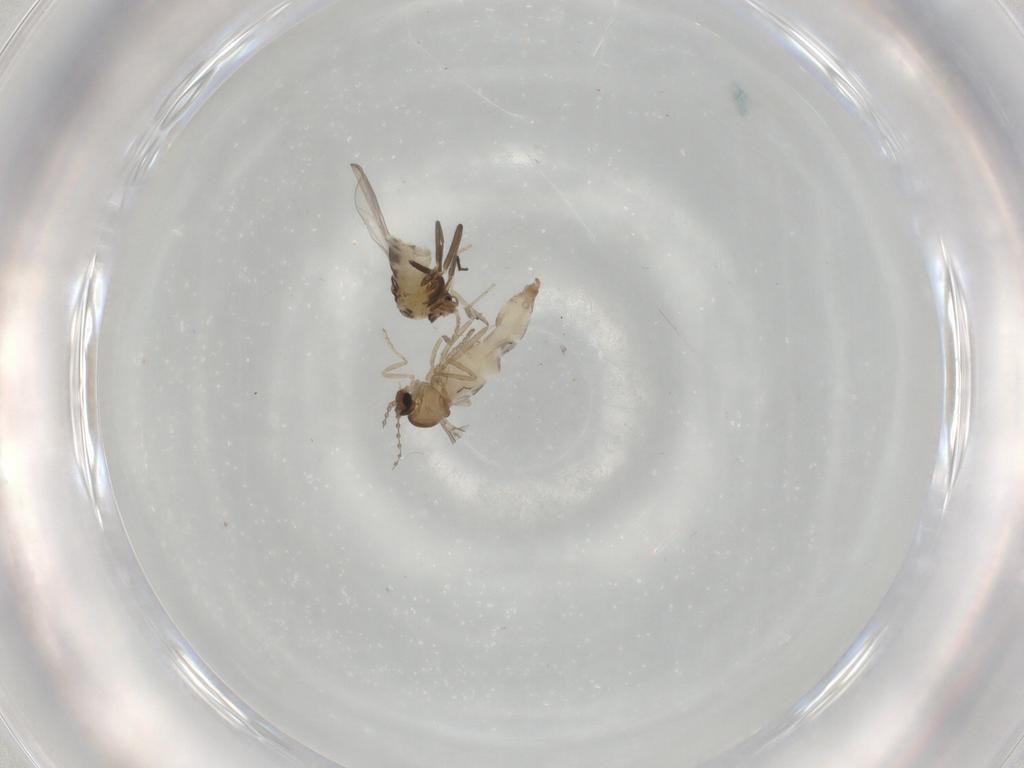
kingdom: Animalia
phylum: Arthropoda
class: Insecta
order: Diptera
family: Chironomidae
